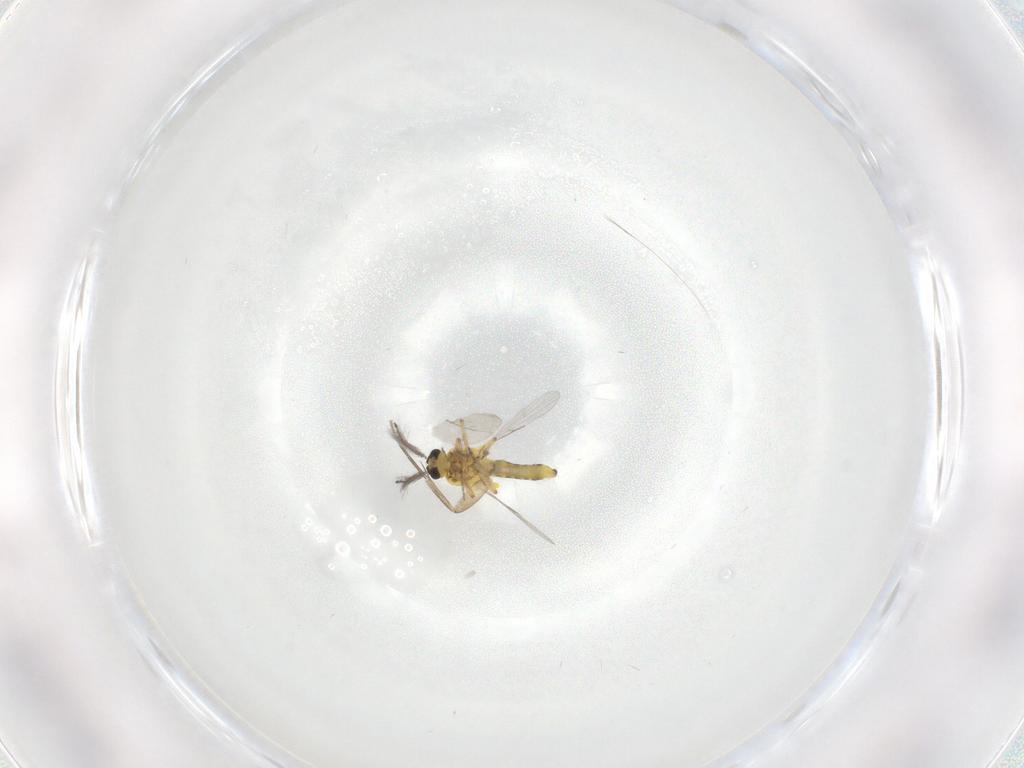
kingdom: Animalia
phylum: Arthropoda
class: Insecta
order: Diptera
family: Phoridae
